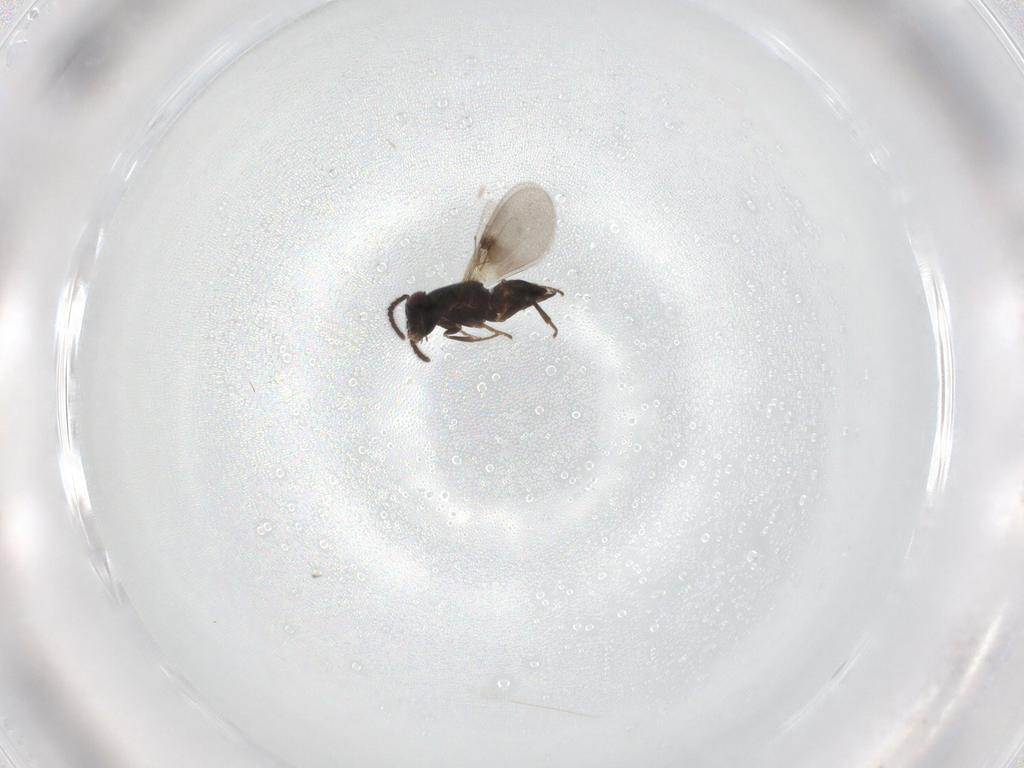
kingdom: Animalia
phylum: Arthropoda
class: Insecta
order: Hymenoptera
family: Encyrtidae
